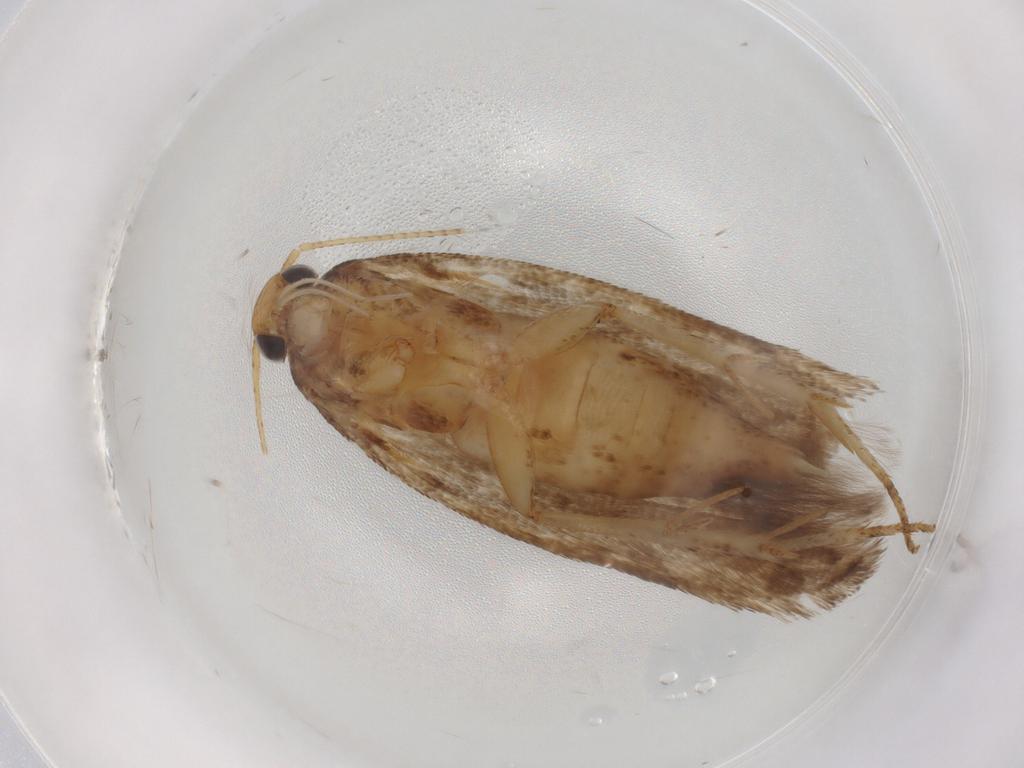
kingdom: Animalia
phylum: Arthropoda
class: Insecta
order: Lepidoptera
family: Gelechiidae
